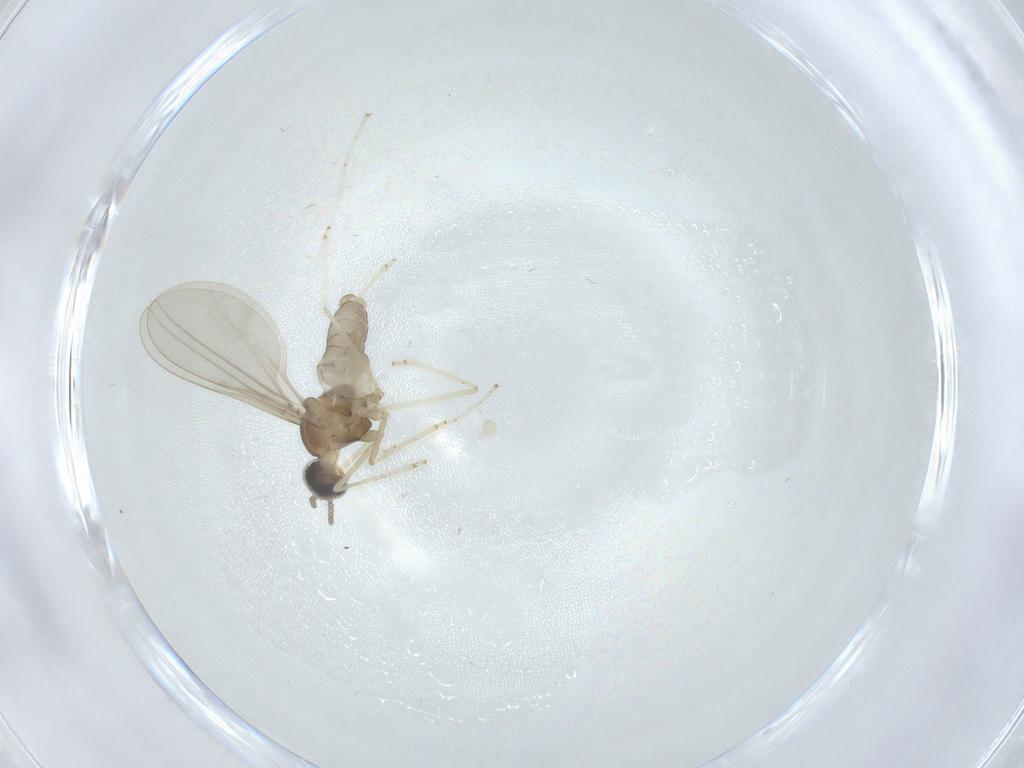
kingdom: Animalia
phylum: Arthropoda
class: Insecta
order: Diptera
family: Cecidomyiidae
